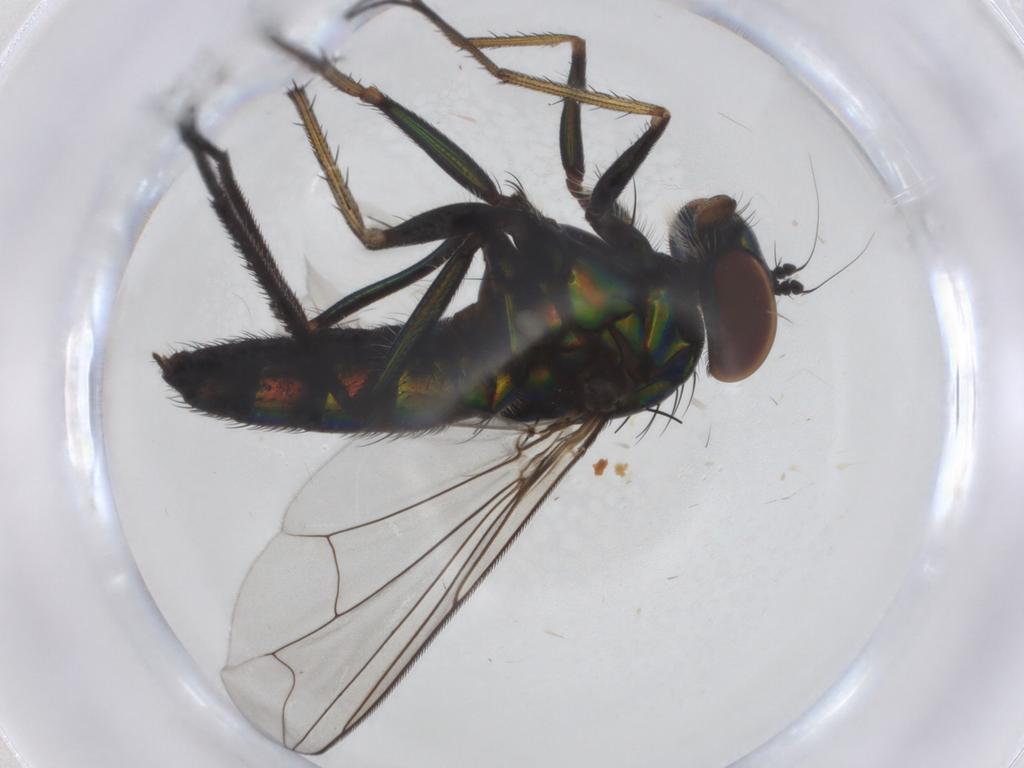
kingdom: Animalia
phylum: Arthropoda
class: Insecta
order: Diptera
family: Dolichopodidae
